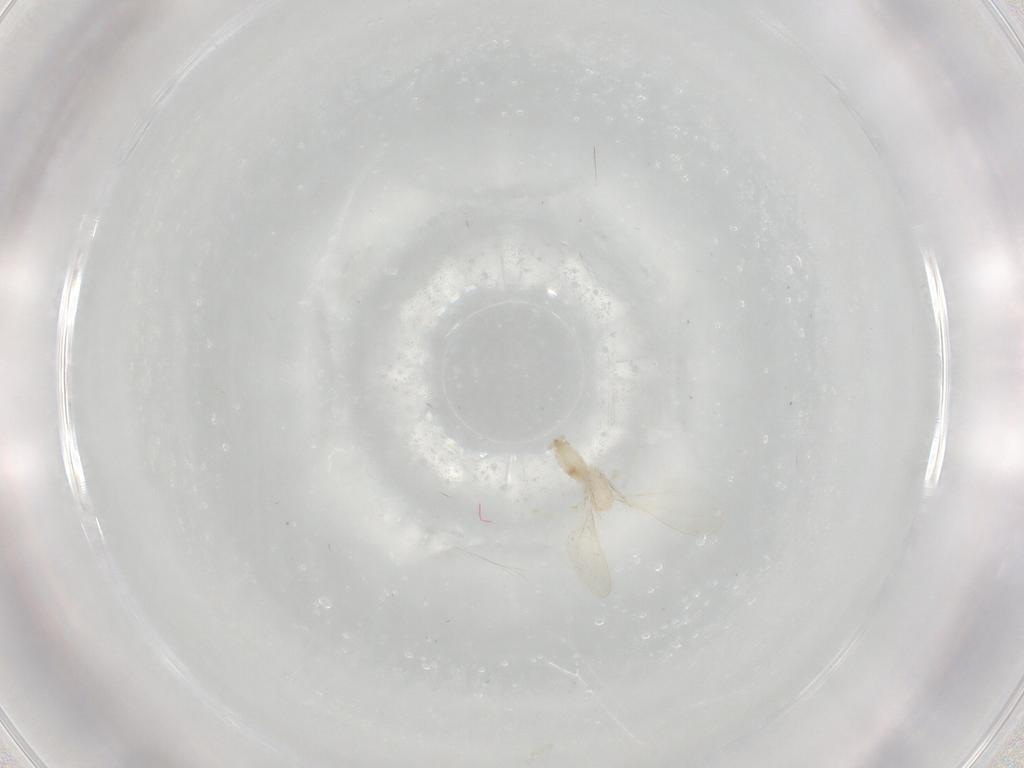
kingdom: Animalia
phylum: Arthropoda
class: Insecta
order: Diptera
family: Cecidomyiidae
